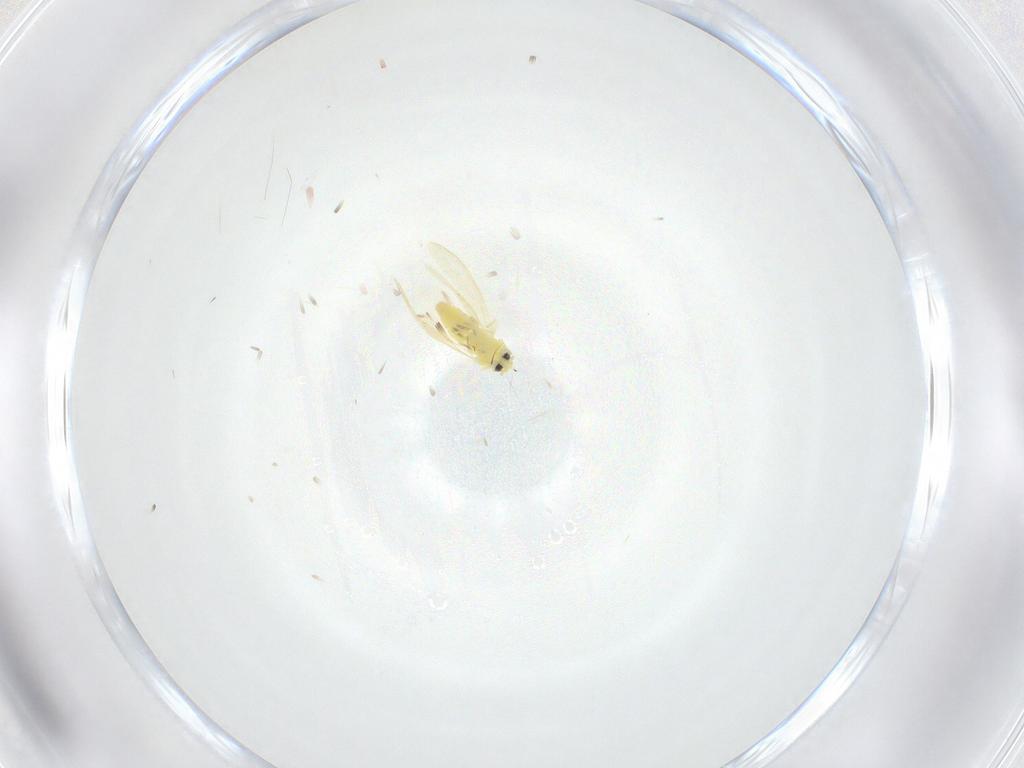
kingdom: Animalia
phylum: Arthropoda
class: Insecta
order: Hemiptera
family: Aleyrodidae
